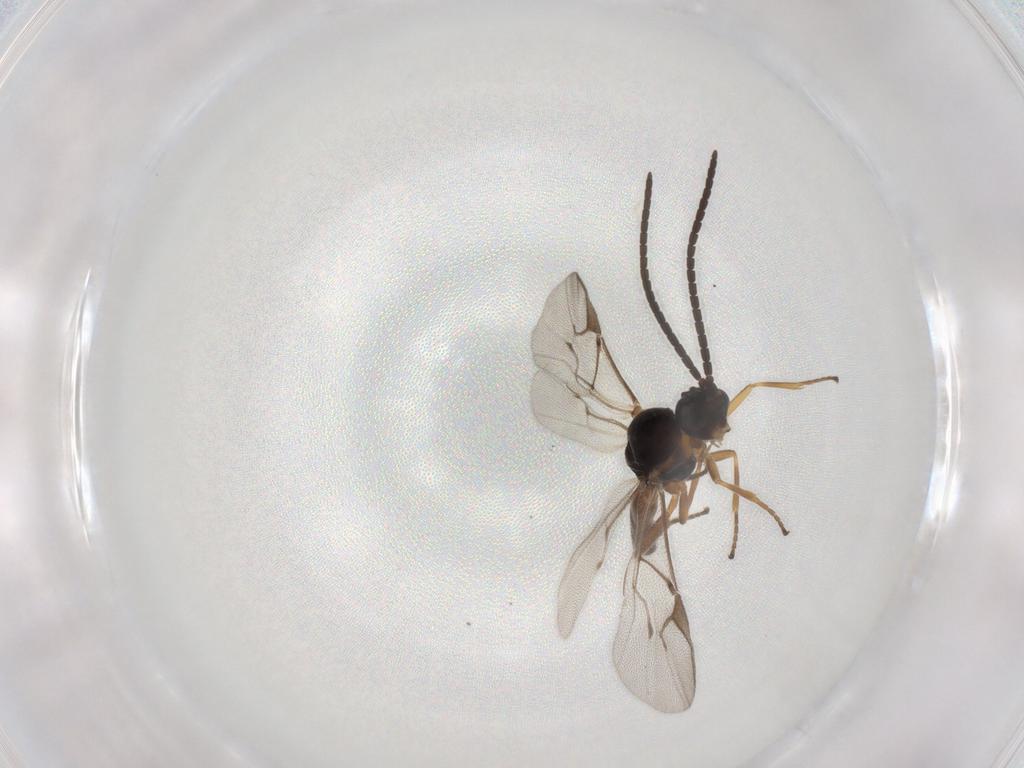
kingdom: Animalia
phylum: Arthropoda
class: Insecta
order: Hymenoptera
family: Braconidae
